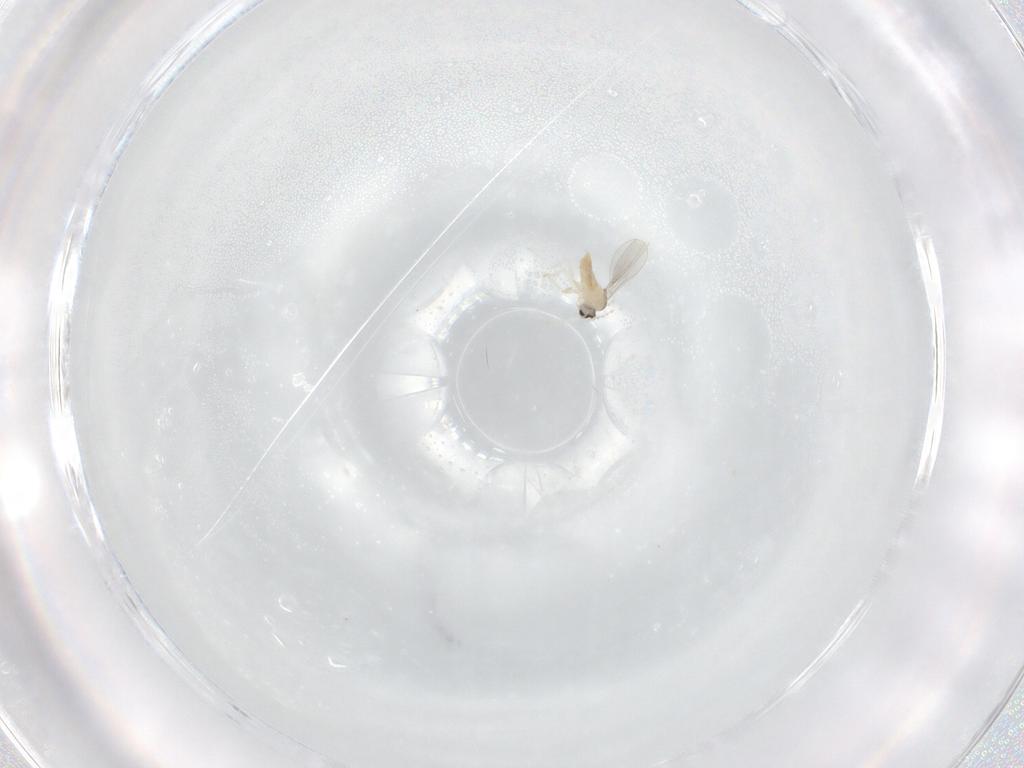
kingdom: Animalia
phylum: Arthropoda
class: Insecta
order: Diptera
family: Cecidomyiidae
